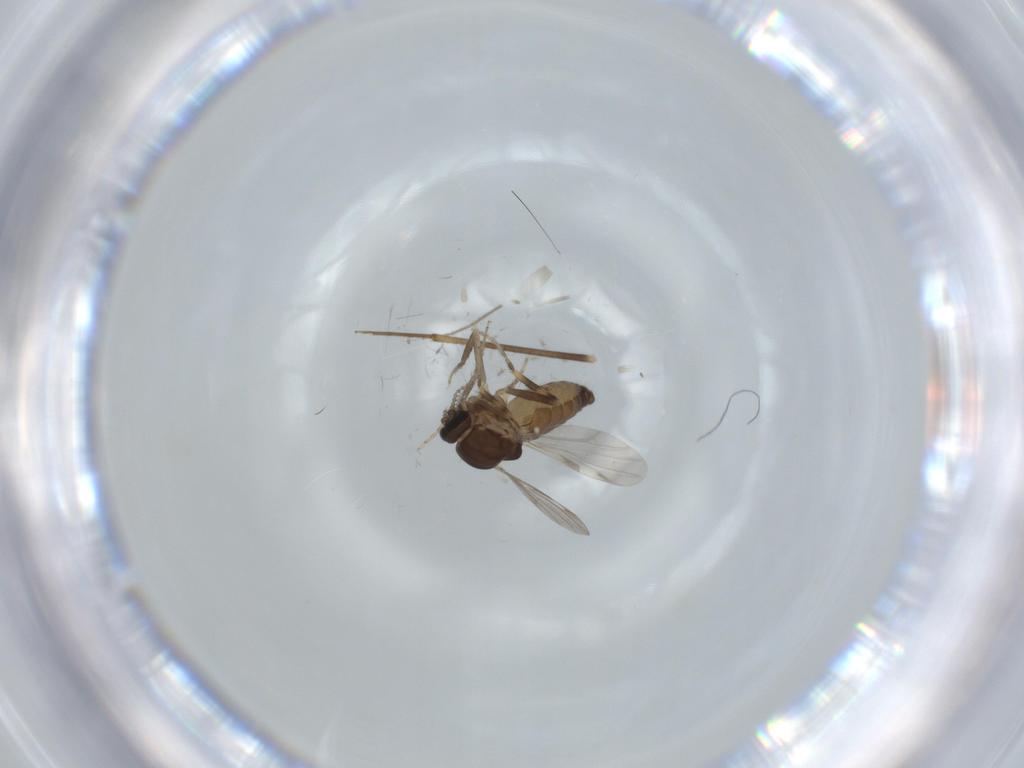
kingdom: Animalia
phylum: Arthropoda
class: Insecta
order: Diptera
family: Ceratopogonidae
